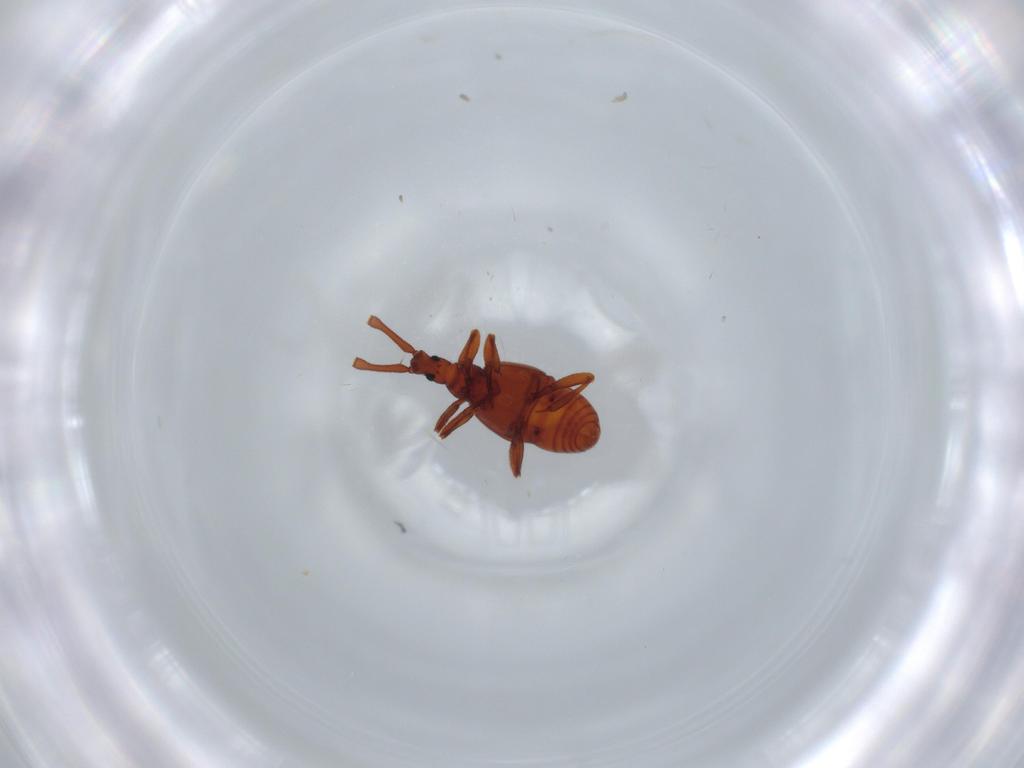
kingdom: Animalia
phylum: Arthropoda
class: Insecta
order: Coleoptera
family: Staphylinidae
